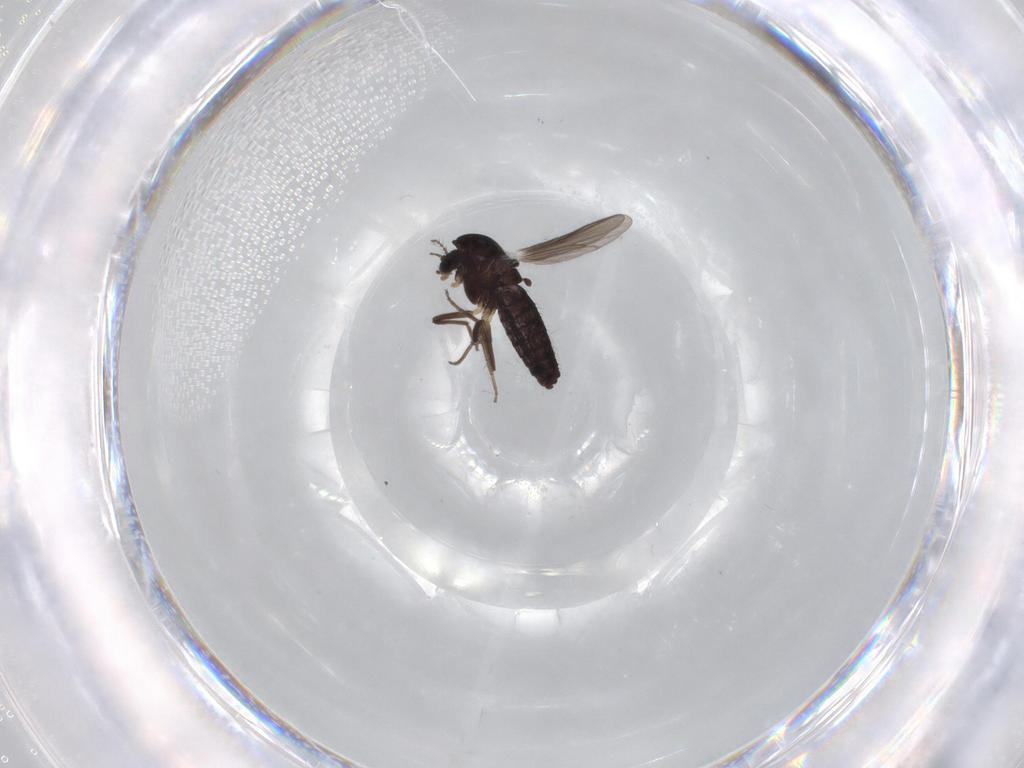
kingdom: Animalia
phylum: Arthropoda
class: Insecta
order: Diptera
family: Chironomidae
